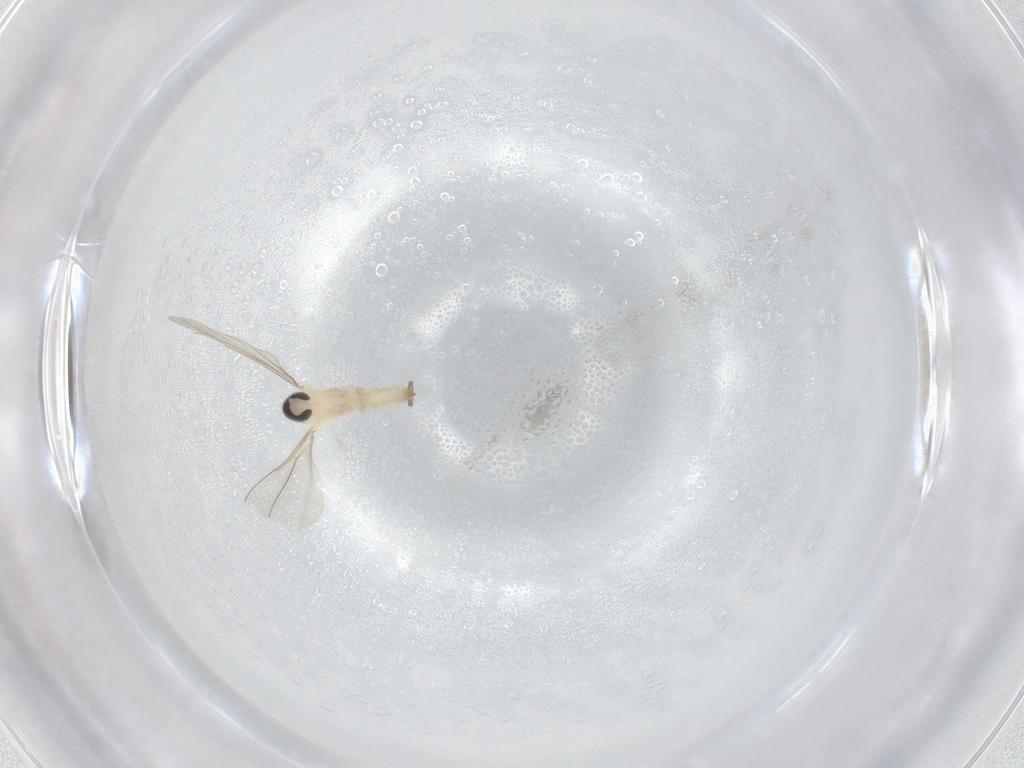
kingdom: Animalia
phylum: Arthropoda
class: Insecta
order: Diptera
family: Cecidomyiidae
